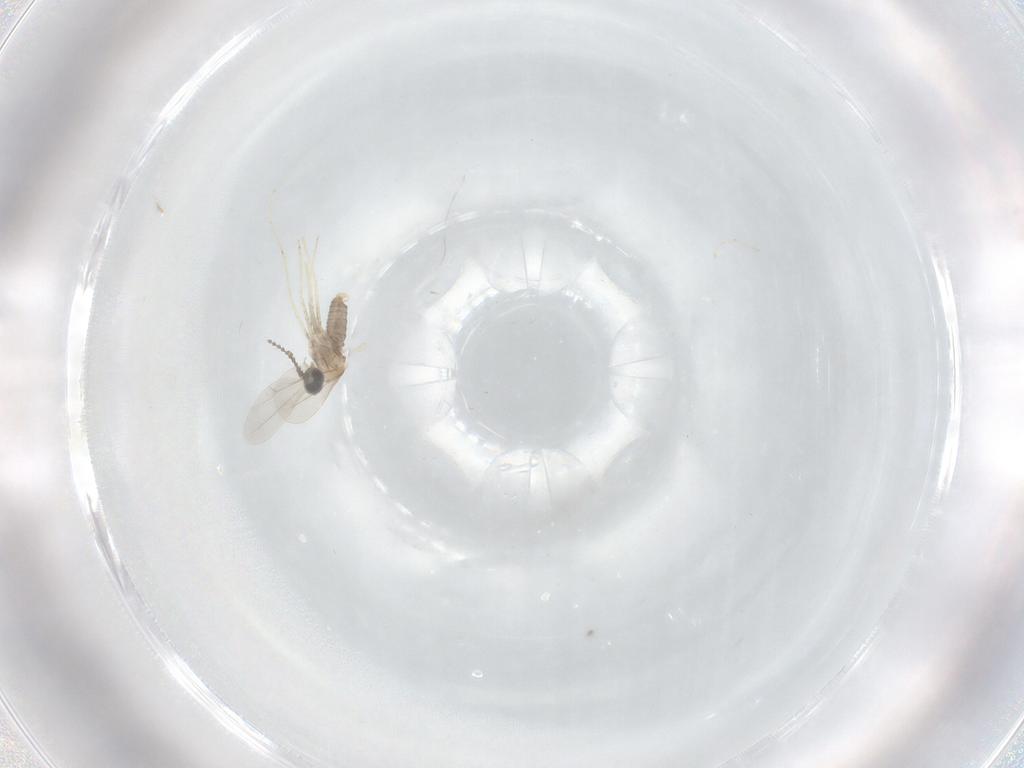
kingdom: Animalia
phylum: Arthropoda
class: Insecta
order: Diptera
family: Cecidomyiidae
